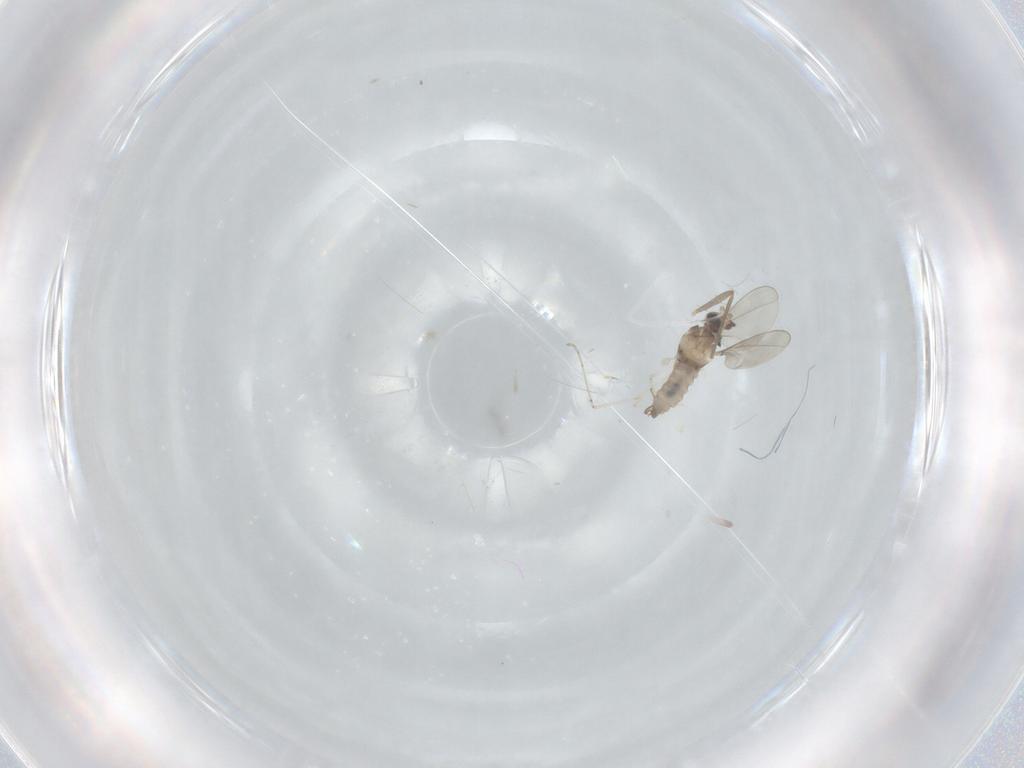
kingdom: Animalia
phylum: Arthropoda
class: Insecta
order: Diptera
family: Cecidomyiidae
